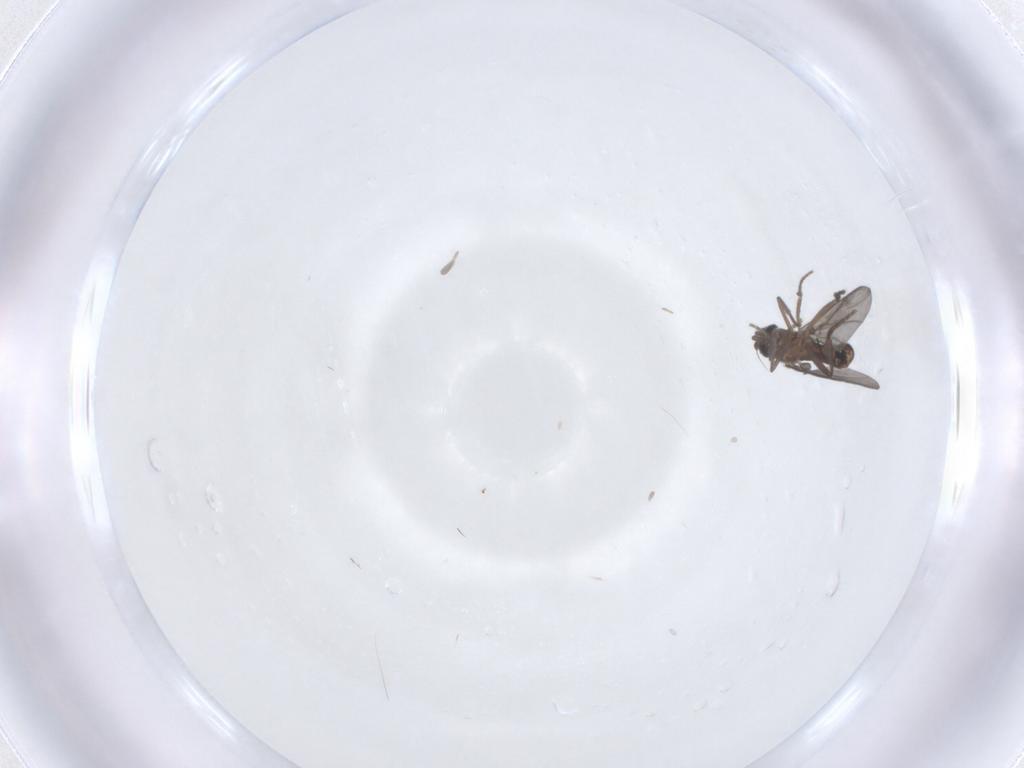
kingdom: Animalia
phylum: Arthropoda
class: Insecta
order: Diptera
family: Phoridae
